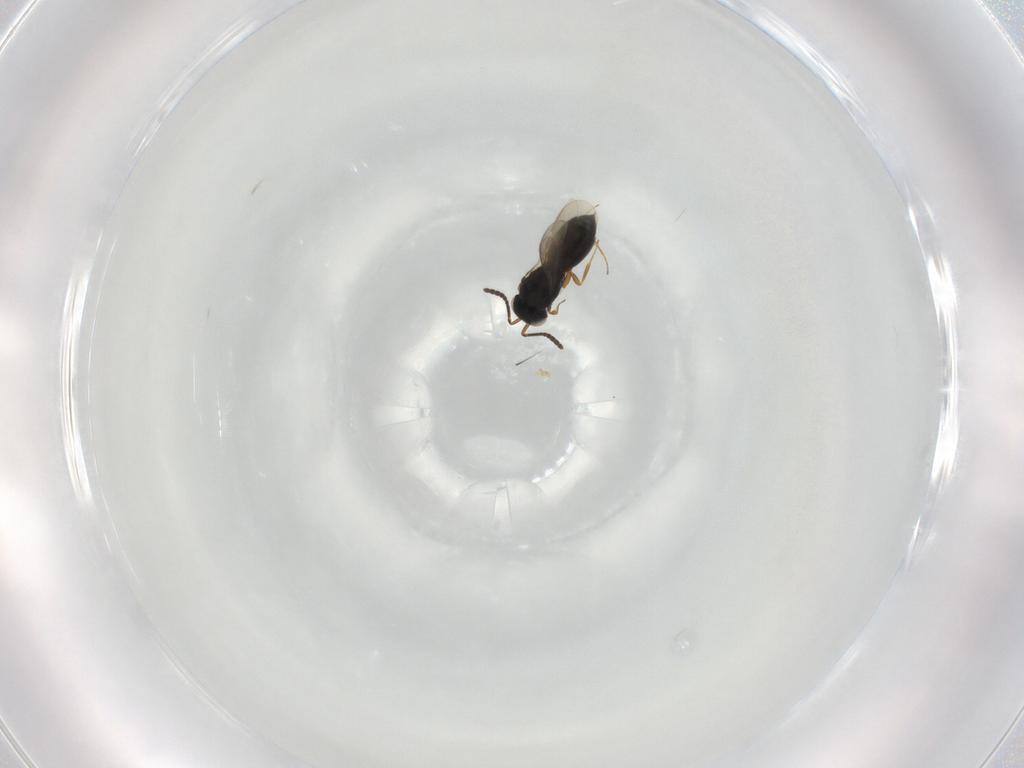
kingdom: Animalia
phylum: Arthropoda
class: Insecta
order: Hymenoptera
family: Scelionidae
